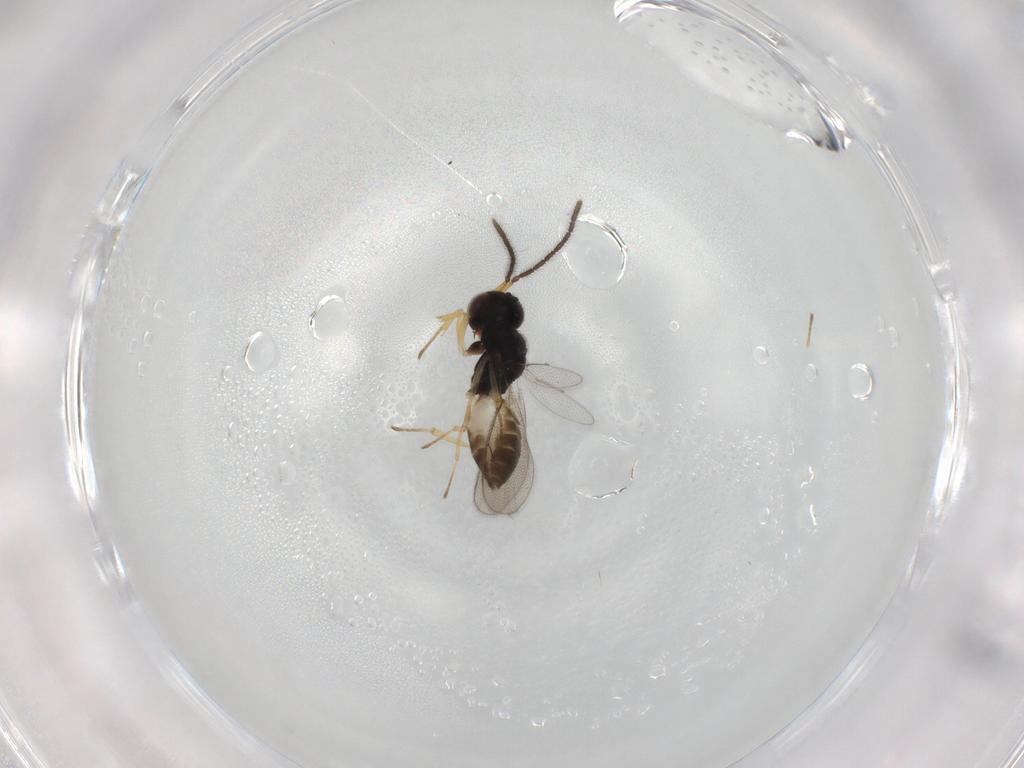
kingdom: Animalia
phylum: Arthropoda
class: Insecta
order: Hymenoptera
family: Pteromalidae
